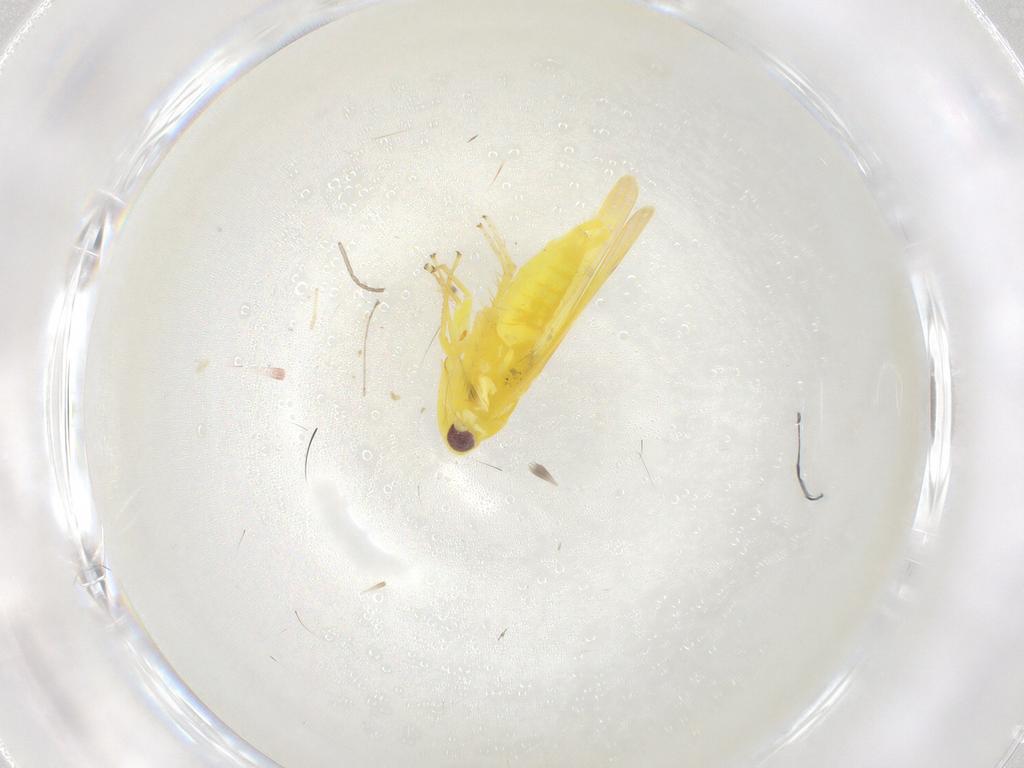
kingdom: Animalia
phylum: Arthropoda
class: Insecta
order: Hemiptera
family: Cicadellidae
